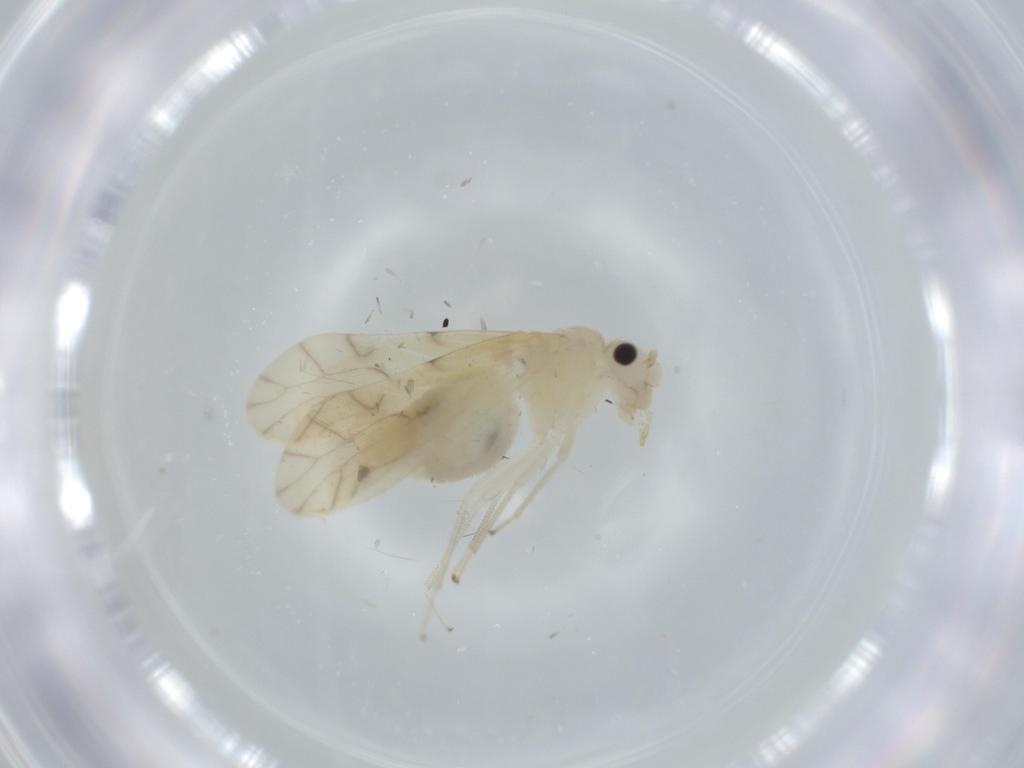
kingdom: Animalia
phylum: Arthropoda
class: Insecta
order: Psocodea
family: Caeciliusidae
